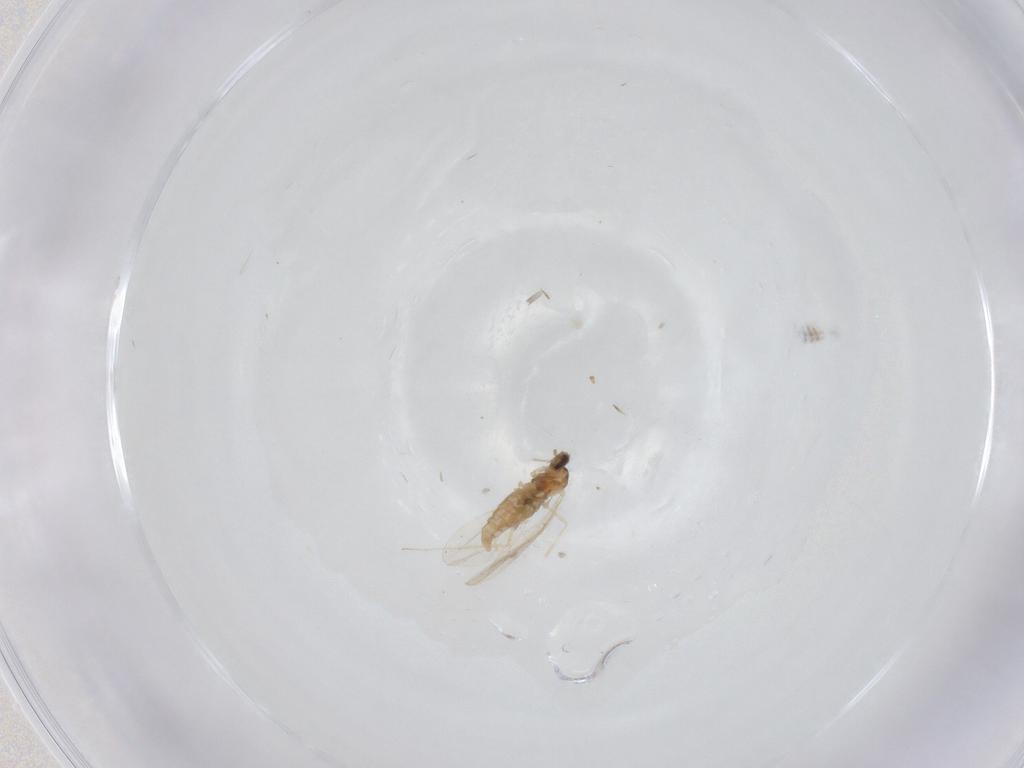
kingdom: Animalia
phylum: Arthropoda
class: Insecta
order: Diptera
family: Cecidomyiidae
